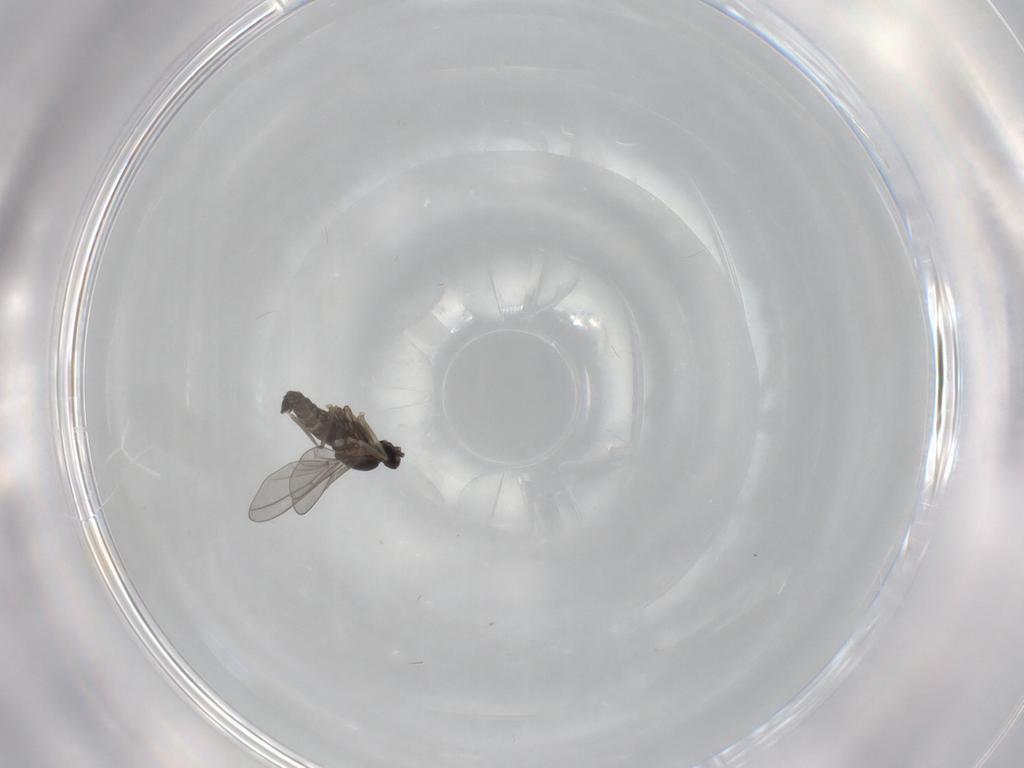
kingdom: Animalia
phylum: Arthropoda
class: Insecta
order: Diptera
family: Cecidomyiidae
